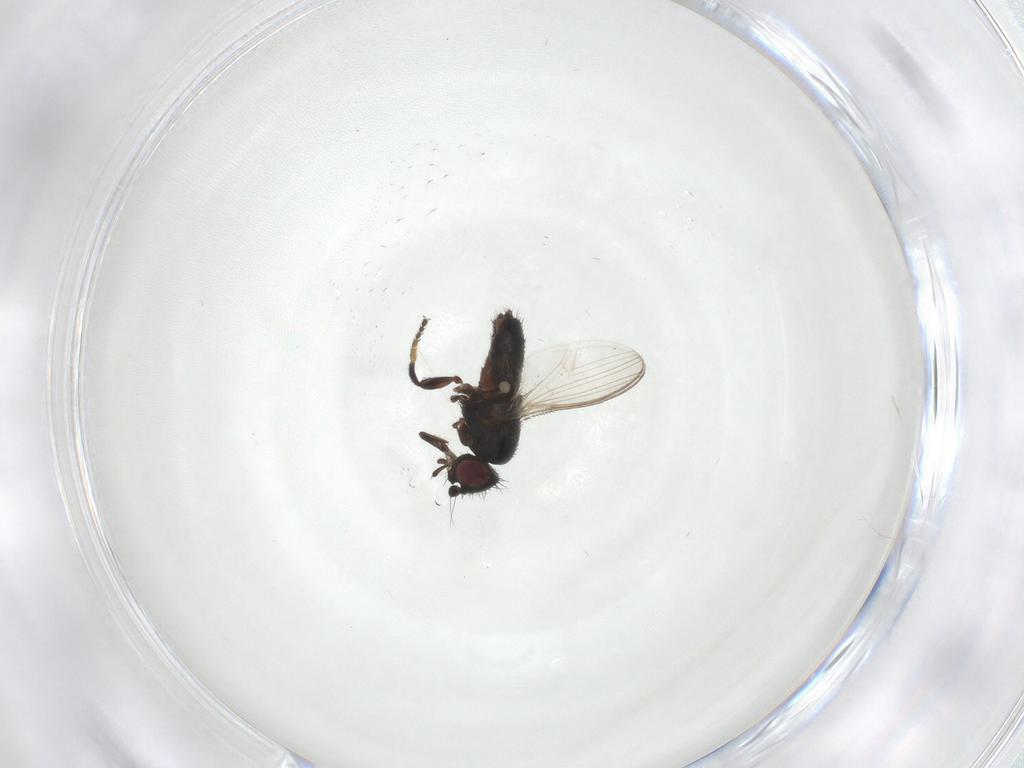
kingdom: Animalia
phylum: Arthropoda
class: Insecta
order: Diptera
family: Milichiidae
